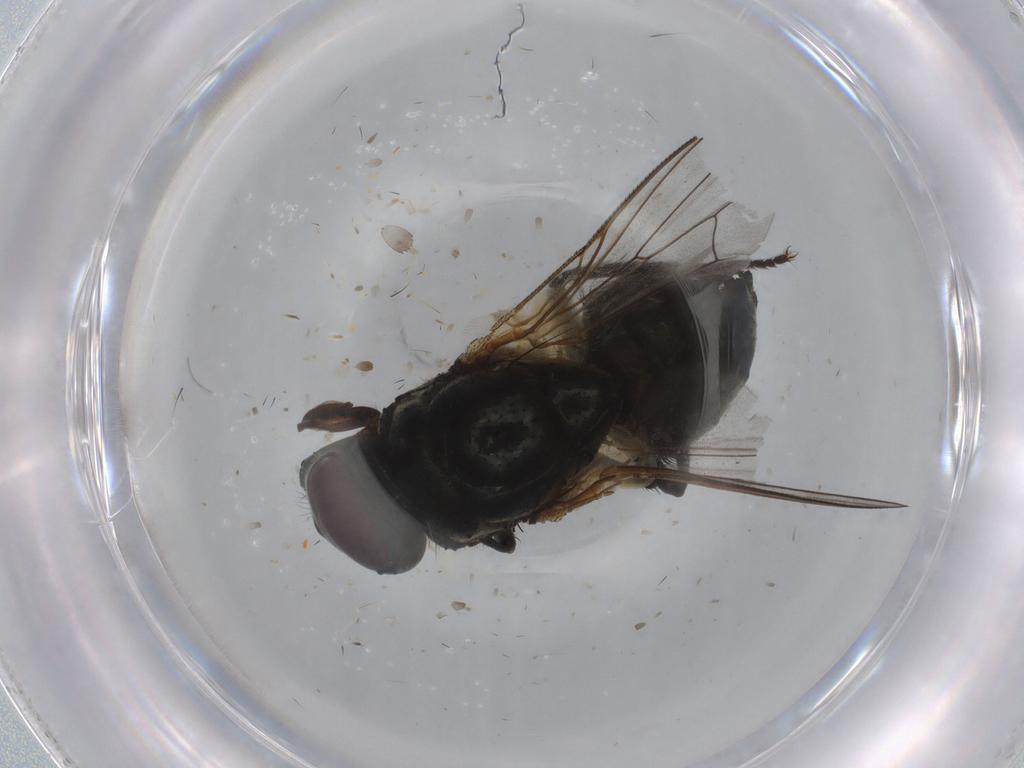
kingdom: Animalia
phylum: Arthropoda
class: Insecta
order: Diptera
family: Muscidae
